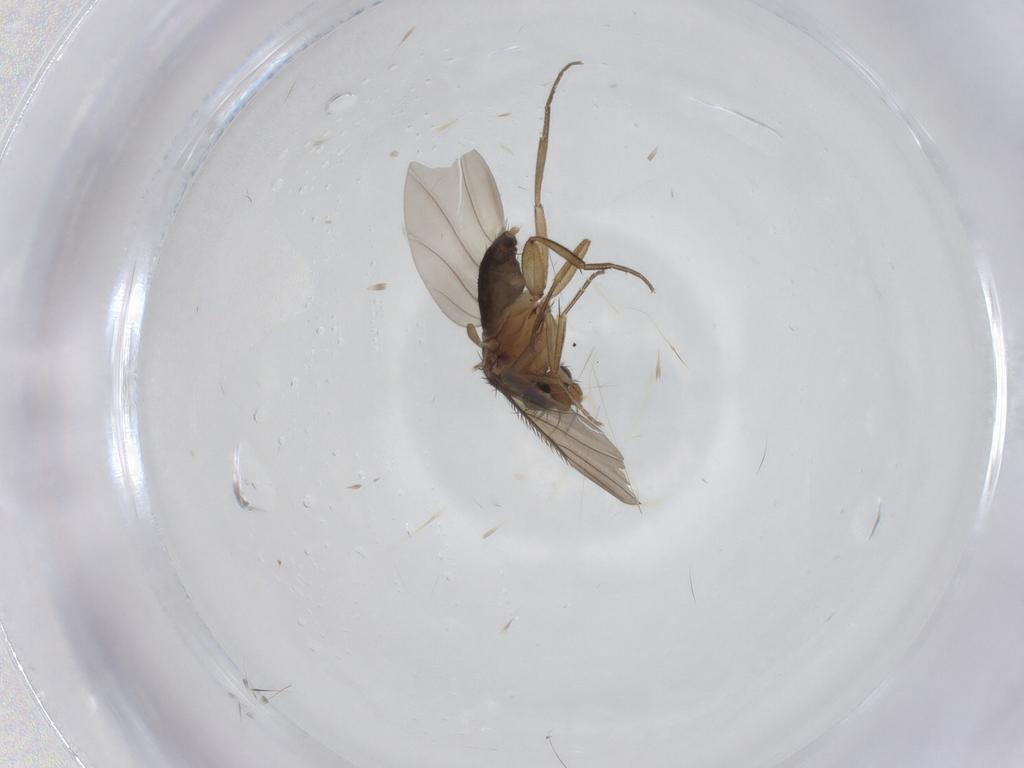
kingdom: Animalia
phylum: Arthropoda
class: Insecta
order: Diptera
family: Phoridae
